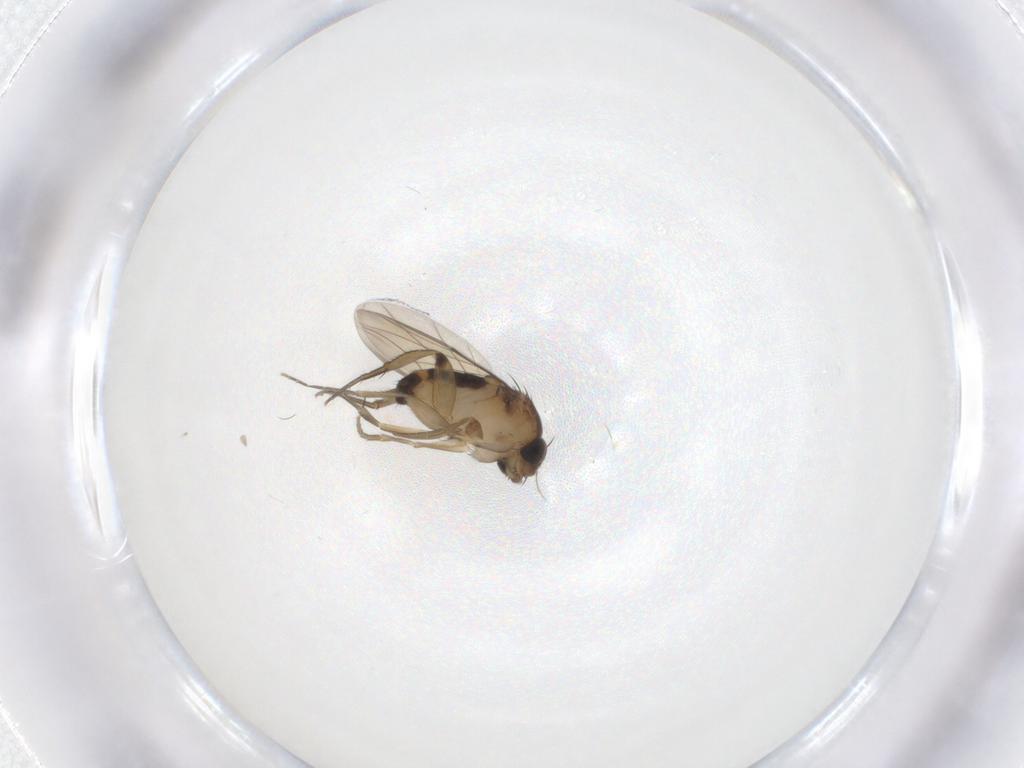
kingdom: Animalia
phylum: Arthropoda
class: Insecta
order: Diptera
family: Phoridae
